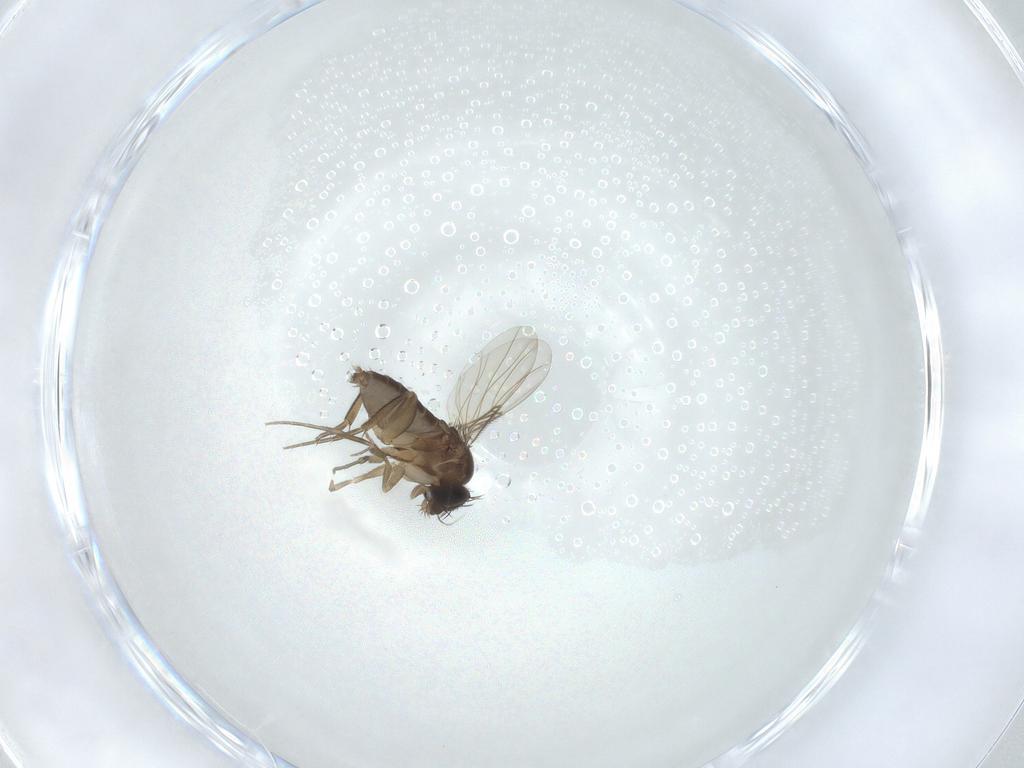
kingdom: Animalia
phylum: Arthropoda
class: Insecta
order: Diptera
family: Phoridae
